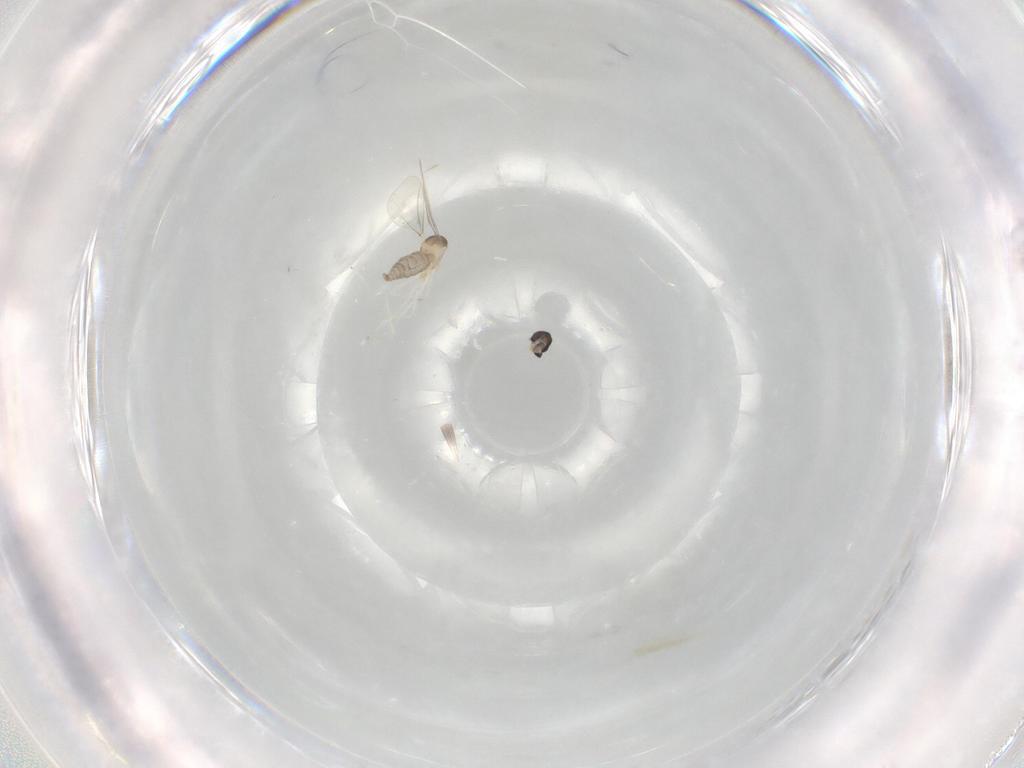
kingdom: Animalia
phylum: Arthropoda
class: Insecta
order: Diptera
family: Cecidomyiidae
